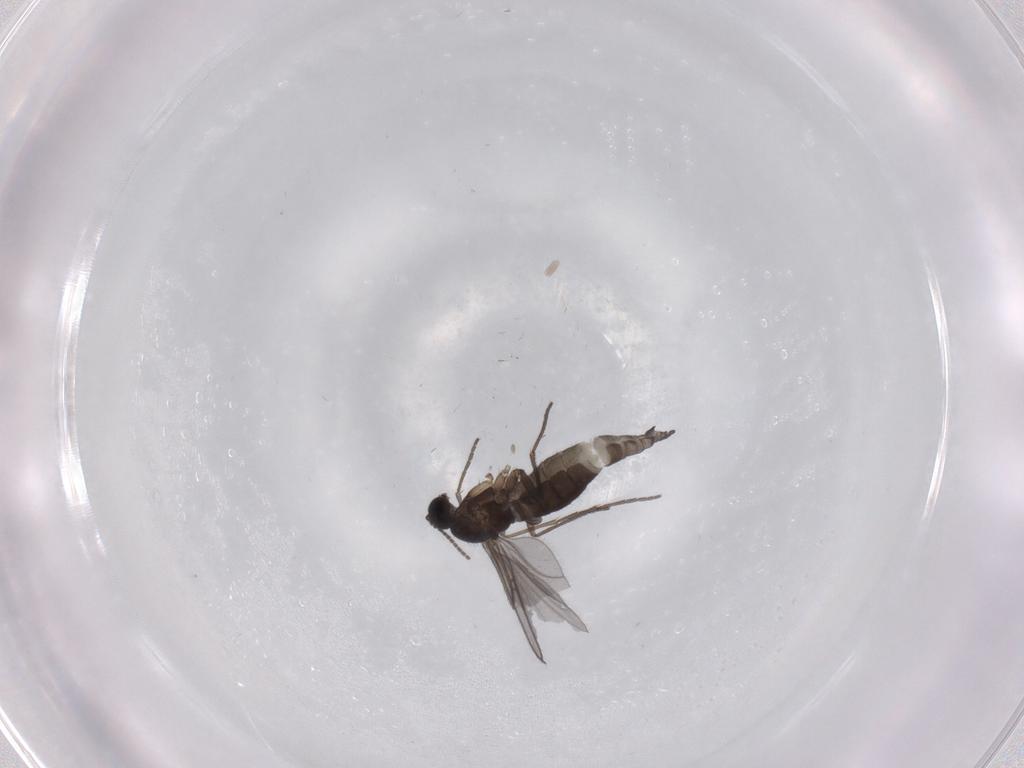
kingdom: Animalia
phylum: Arthropoda
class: Insecta
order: Diptera
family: Sciaridae
